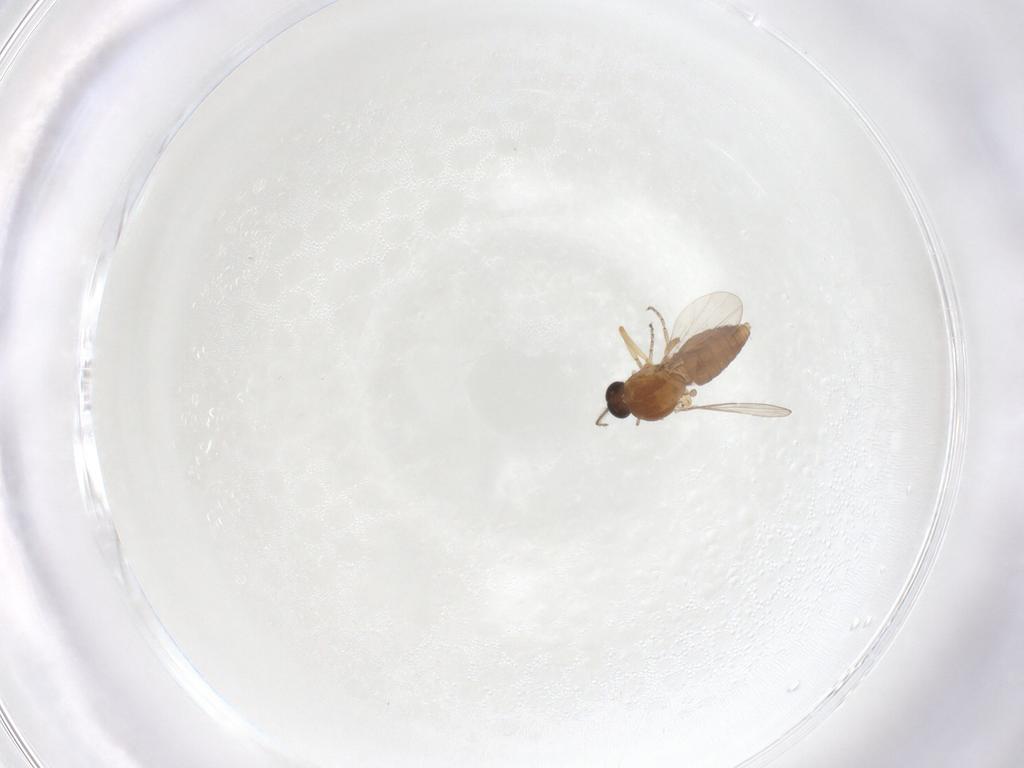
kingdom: Animalia
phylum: Arthropoda
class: Insecta
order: Diptera
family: Ceratopogonidae
